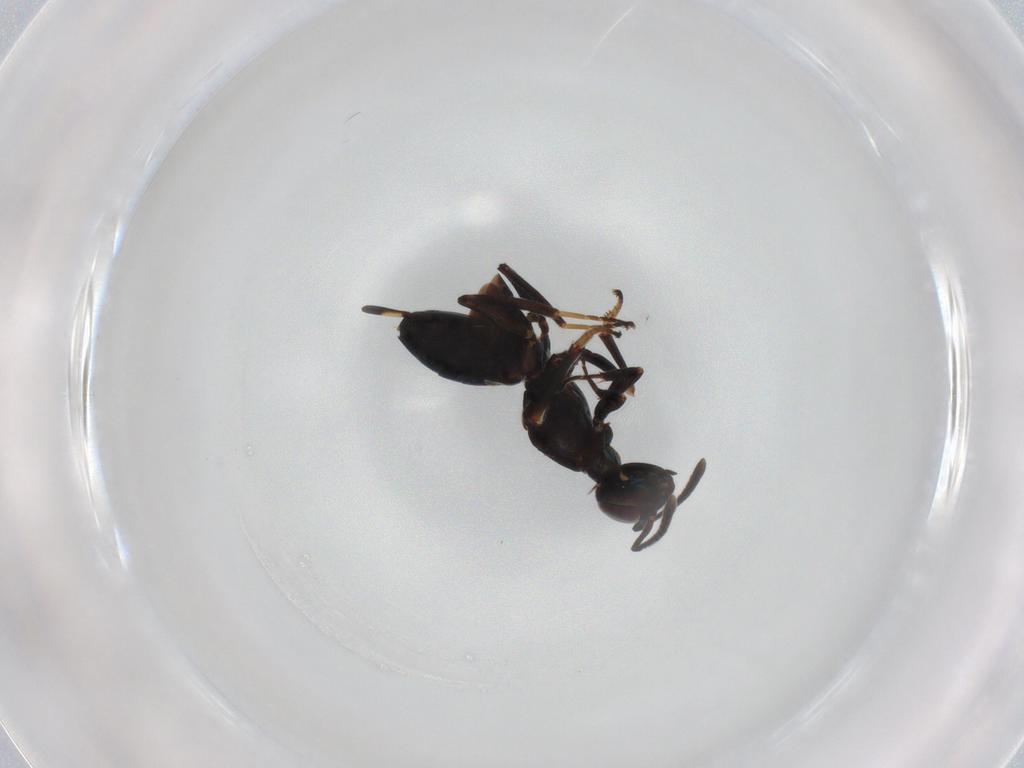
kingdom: Animalia
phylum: Arthropoda
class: Insecta
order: Hymenoptera
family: Eupelmidae
